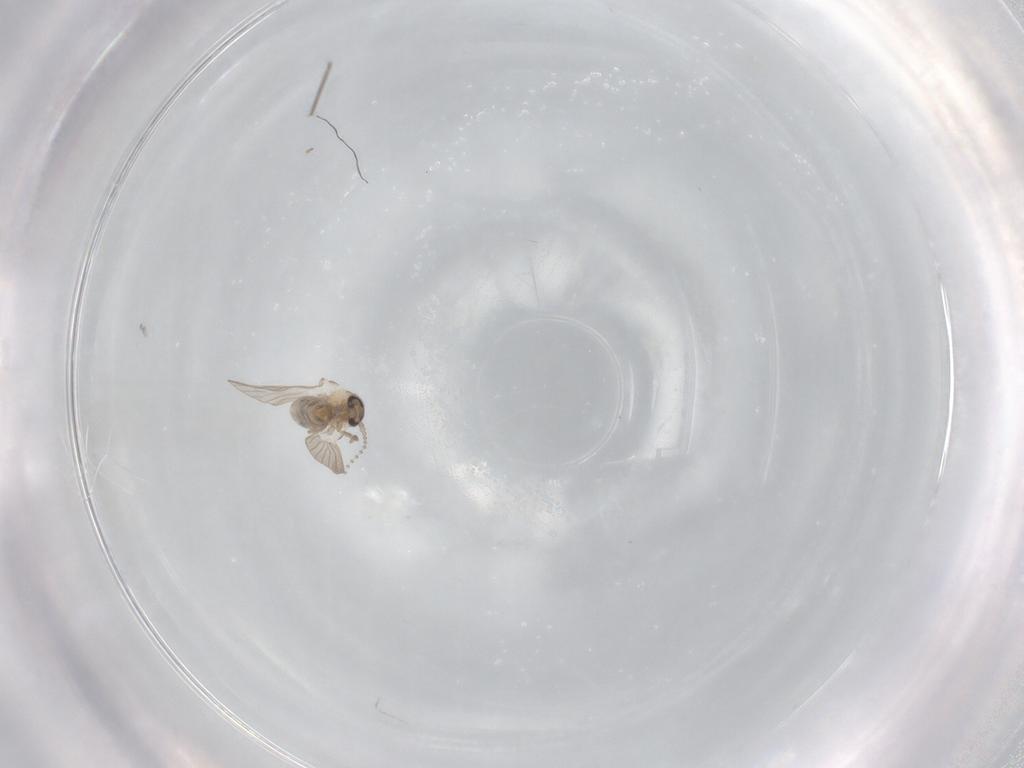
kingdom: Animalia
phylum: Arthropoda
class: Insecta
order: Diptera
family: Psychodidae
